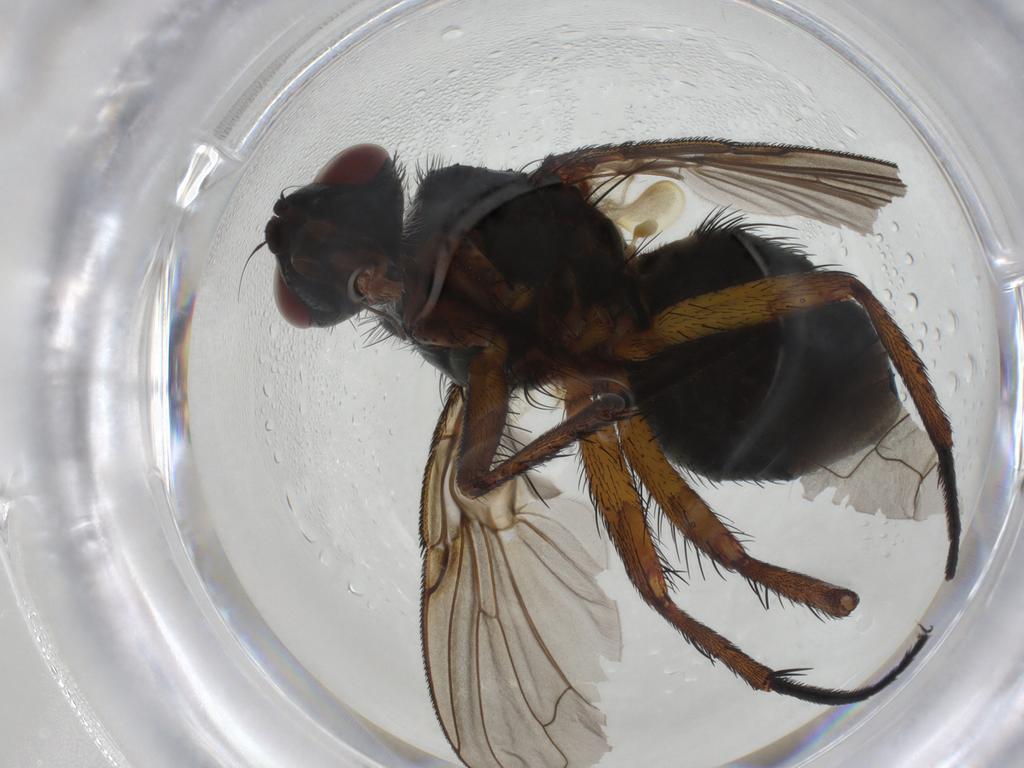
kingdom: Animalia
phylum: Arthropoda
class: Insecta
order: Diptera
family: Anthomyiidae
